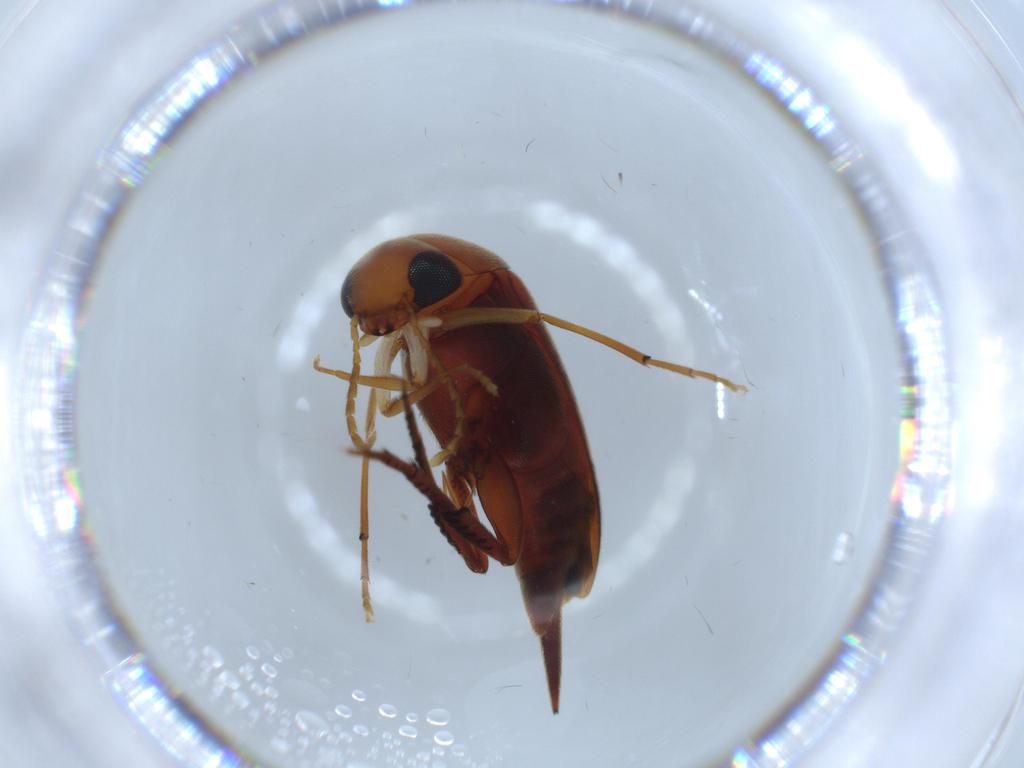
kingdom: Animalia
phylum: Arthropoda
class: Insecta
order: Coleoptera
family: Mordellidae
